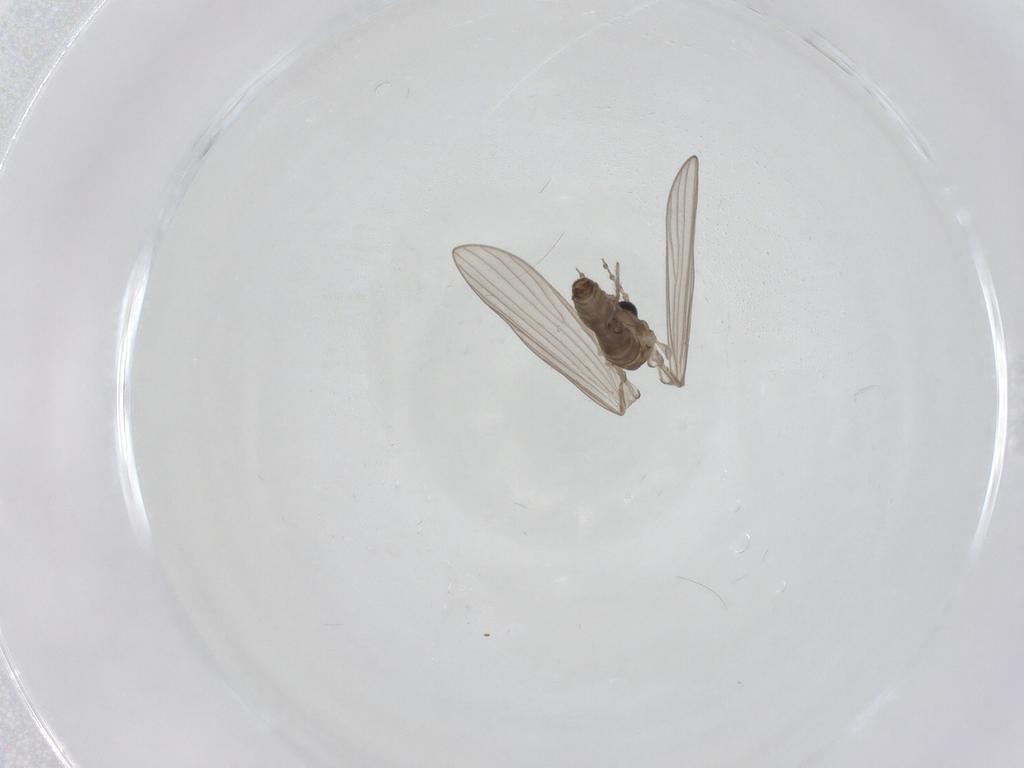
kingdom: Animalia
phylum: Arthropoda
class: Insecta
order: Diptera
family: Psychodidae
